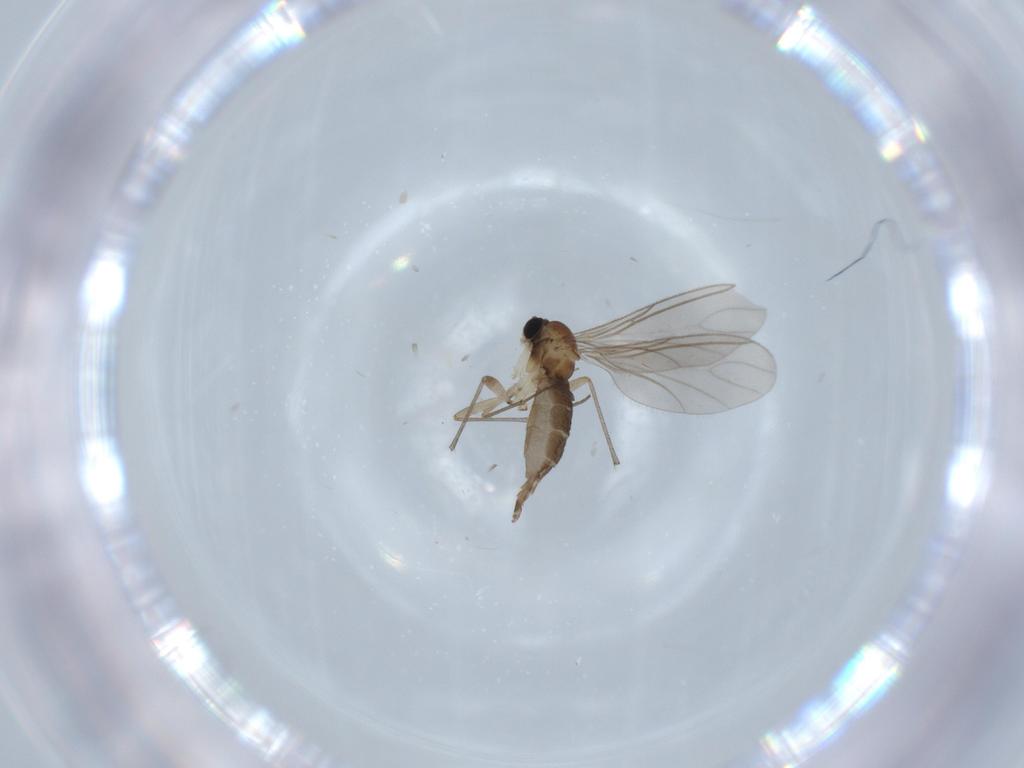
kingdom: Animalia
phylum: Arthropoda
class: Insecta
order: Diptera
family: Sciaridae
